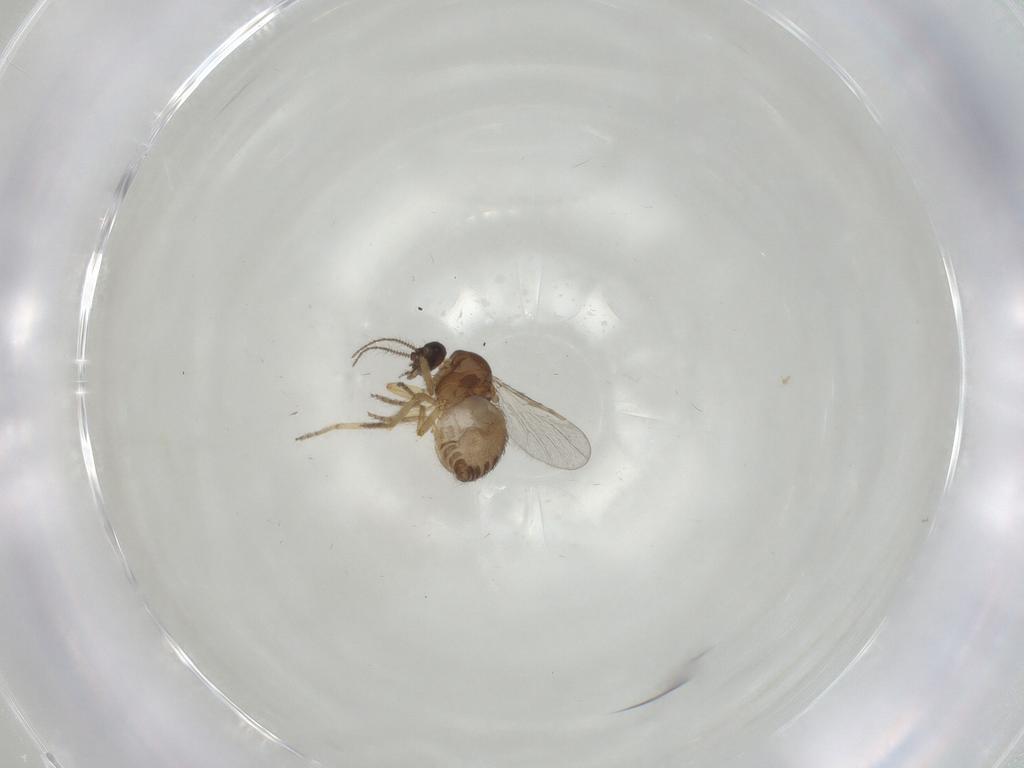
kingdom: Animalia
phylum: Arthropoda
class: Insecta
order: Diptera
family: Ceratopogonidae
